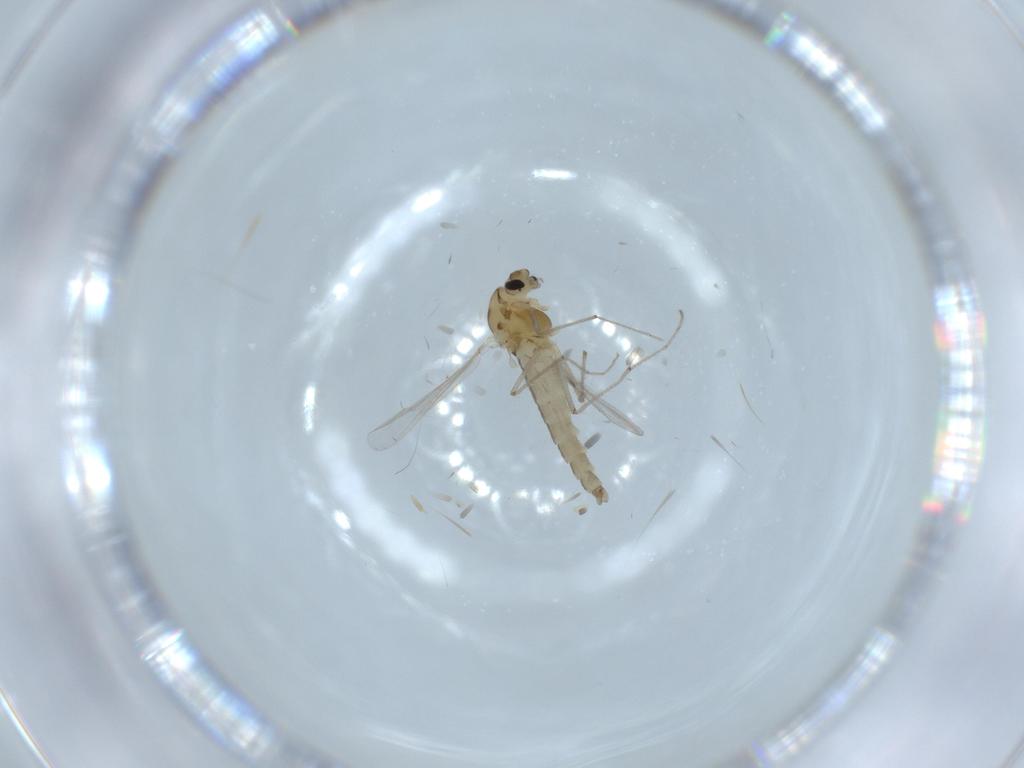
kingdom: Animalia
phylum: Arthropoda
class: Insecta
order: Diptera
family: Chironomidae
